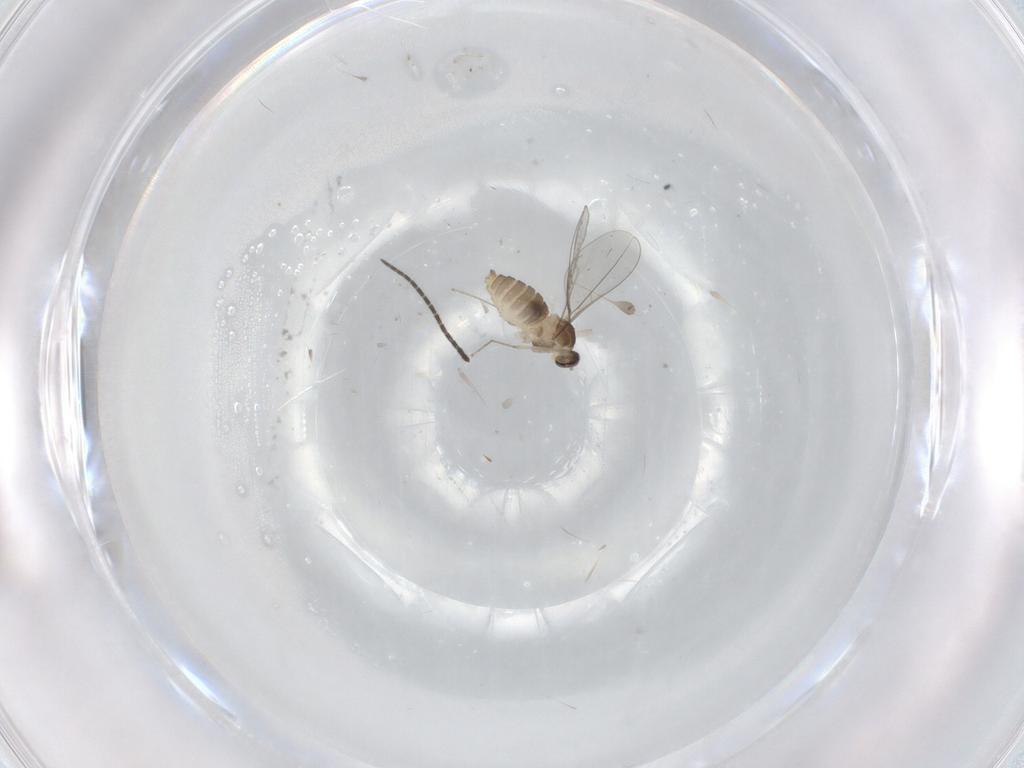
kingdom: Animalia
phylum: Arthropoda
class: Insecta
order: Diptera
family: Cecidomyiidae
